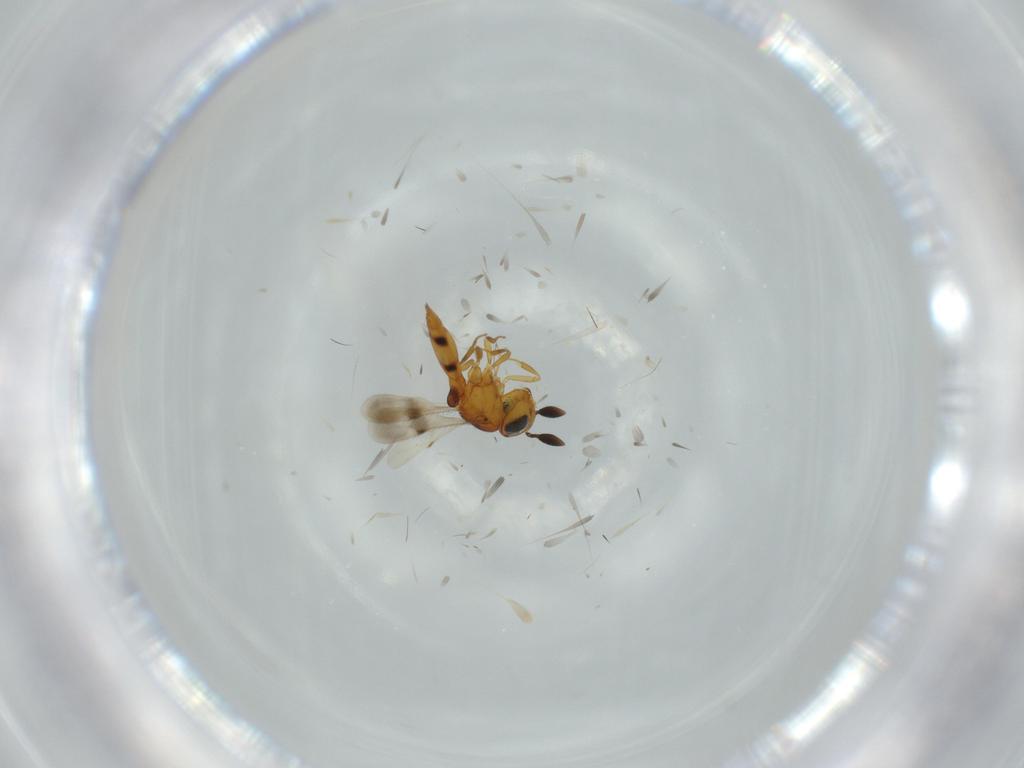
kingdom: Animalia
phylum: Arthropoda
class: Insecta
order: Hymenoptera
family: Scelionidae
